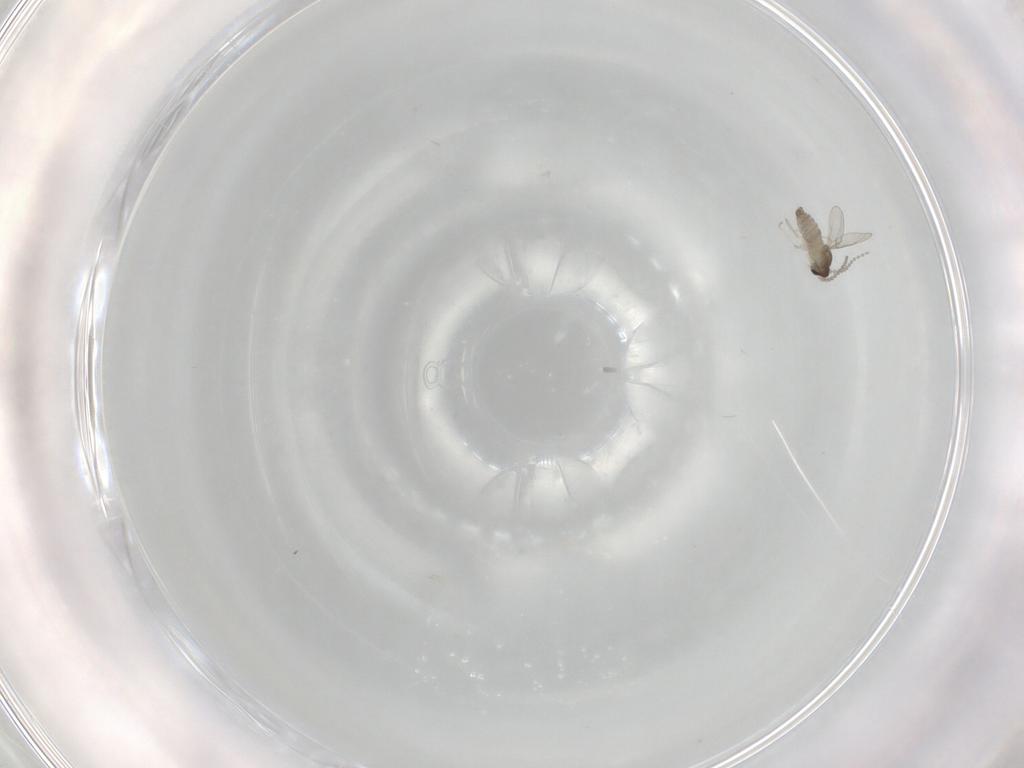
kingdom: Animalia
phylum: Arthropoda
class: Insecta
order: Diptera
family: Cecidomyiidae
